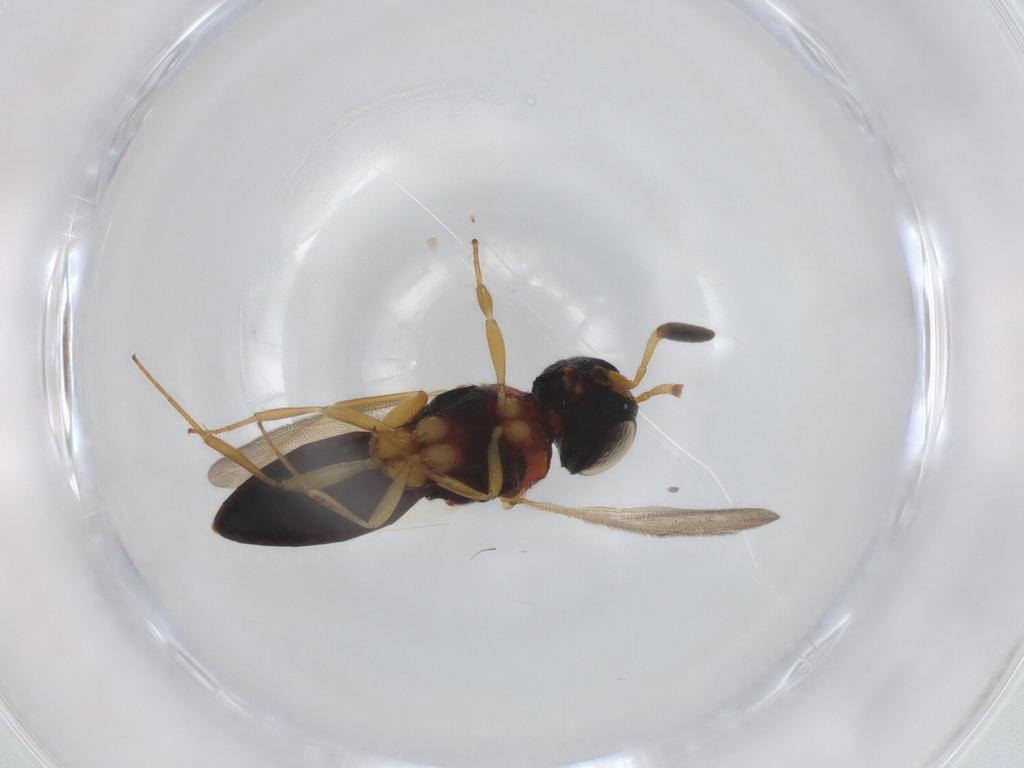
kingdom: Animalia
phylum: Arthropoda
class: Insecta
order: Hymenoptera
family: Scelionidae
